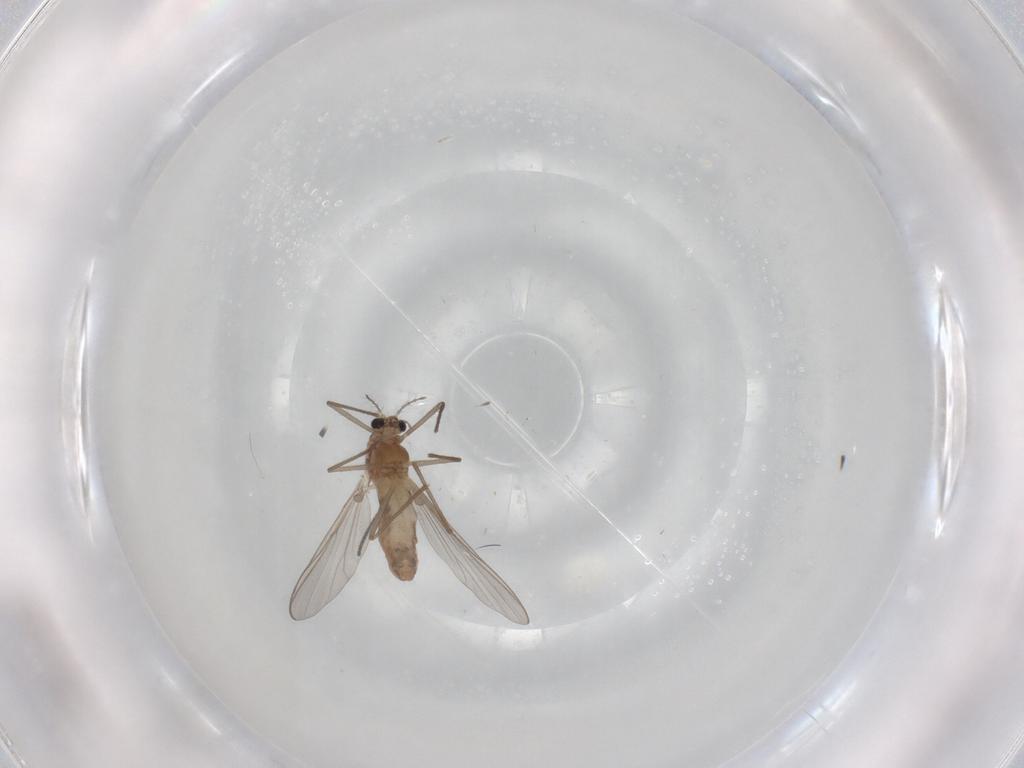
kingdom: Animalia
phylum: Arthropoda
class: Insecta
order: Diptera
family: Chironomidae
